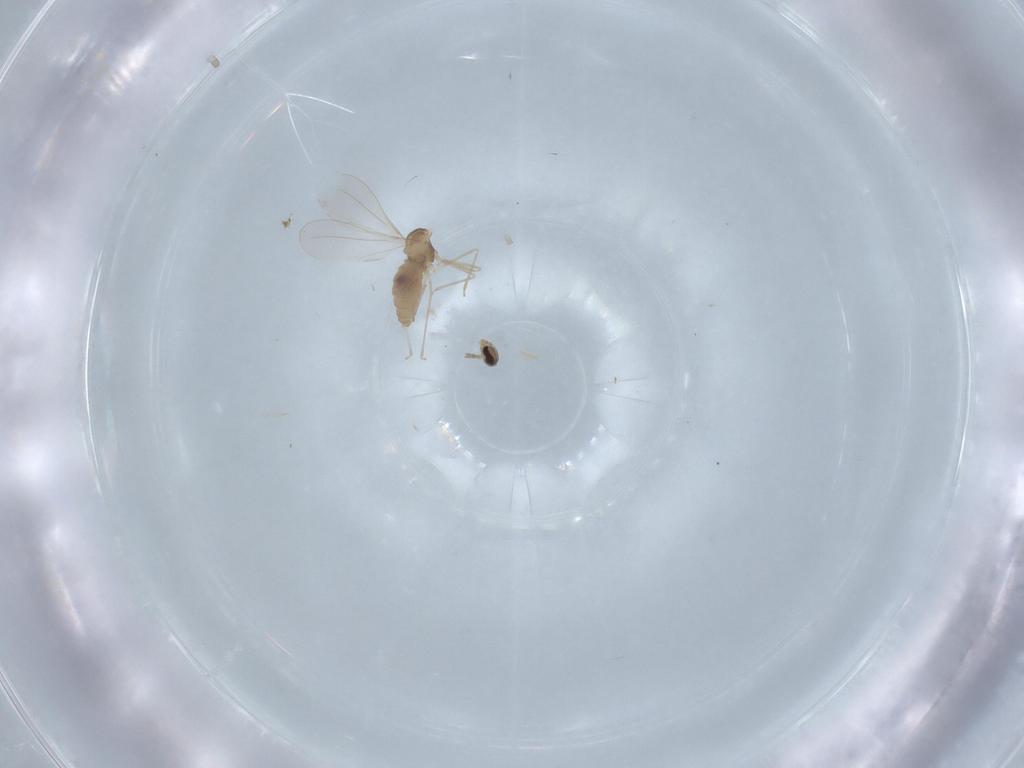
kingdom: Animalia
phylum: Arthropoda
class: Insecta
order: Diptera
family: Cecidomyiidae
